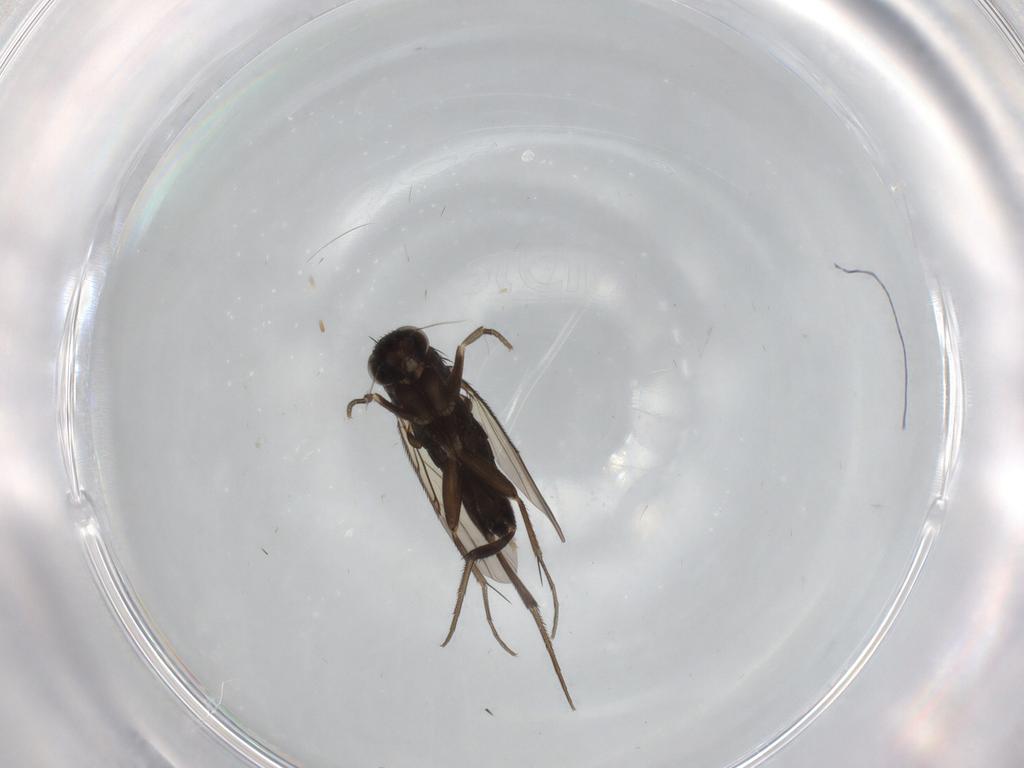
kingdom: Animalia
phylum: Arthropoda
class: Insecta
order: Diptera
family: Phoridae
